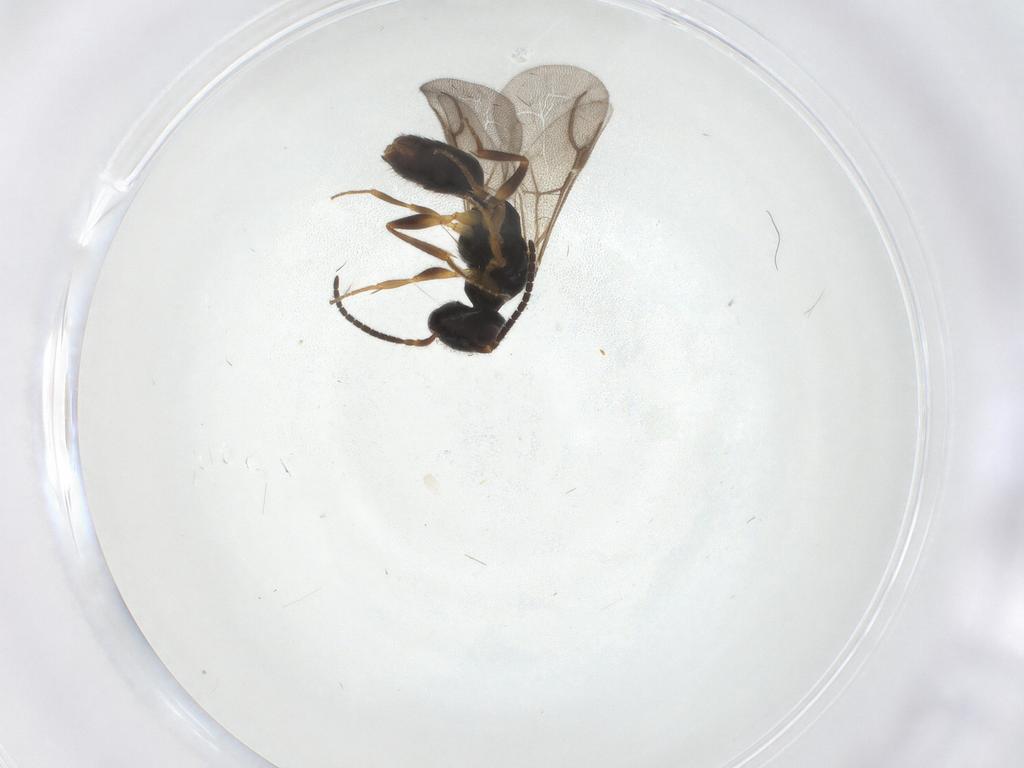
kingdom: Animalia
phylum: Arthropoda
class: Insecta
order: Hymenoptera
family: Bethylidae
